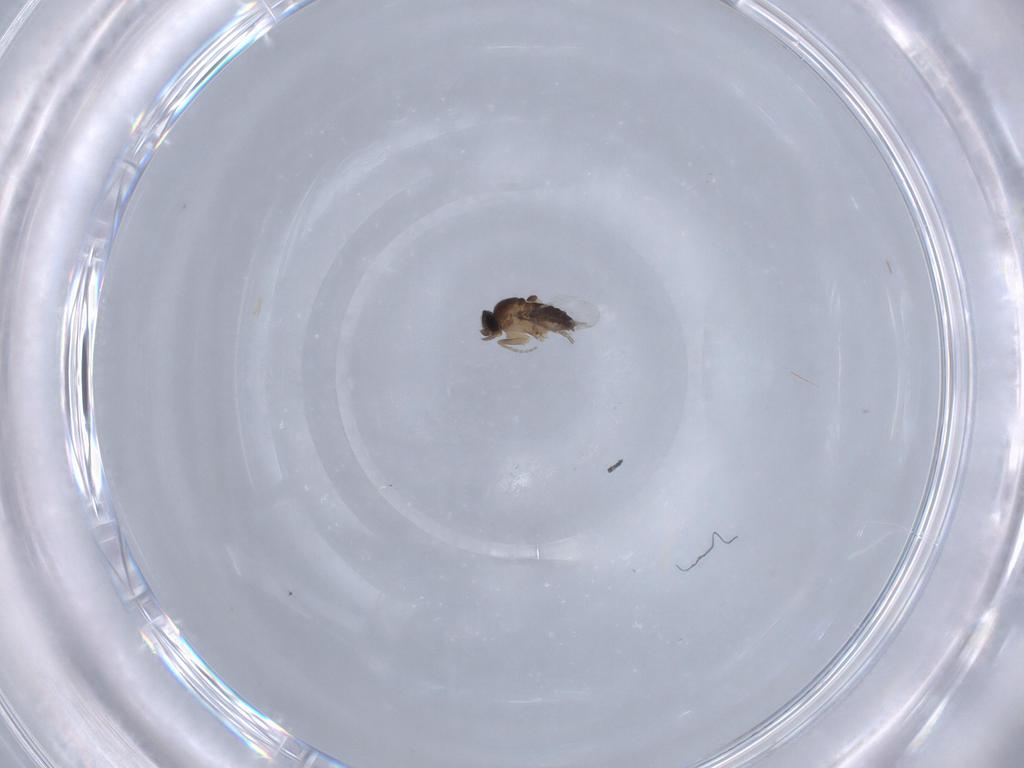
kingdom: Animalia
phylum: Arthropoda
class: Insecta
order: Diptera
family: Phoridae
